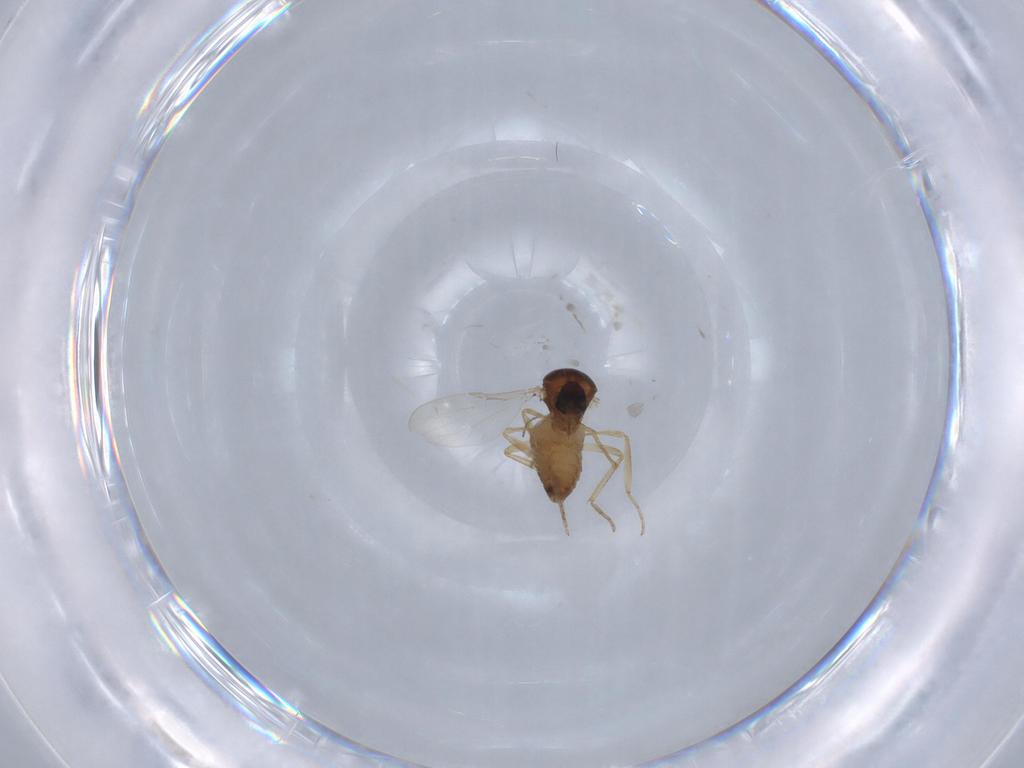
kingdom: Animalia
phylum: Arthropoda
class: Insecta
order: Diptera
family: Ceratopogonidae
